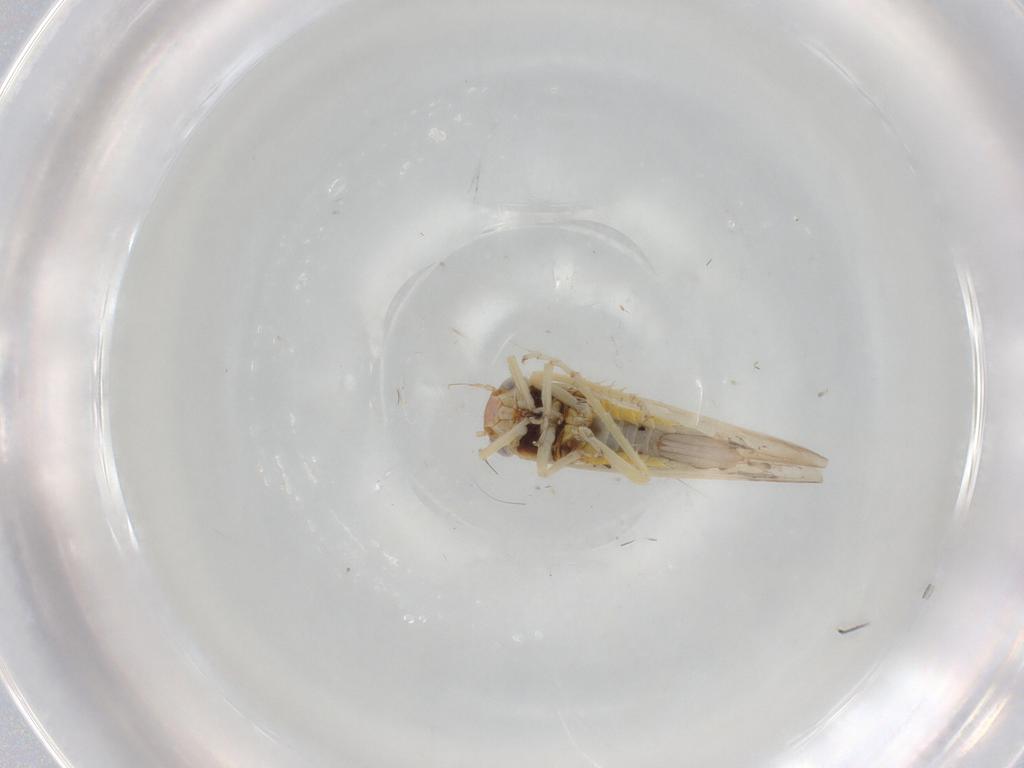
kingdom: Animalia
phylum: Arthropoda
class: Insecta
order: Hemiptera
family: Cicadellidae
